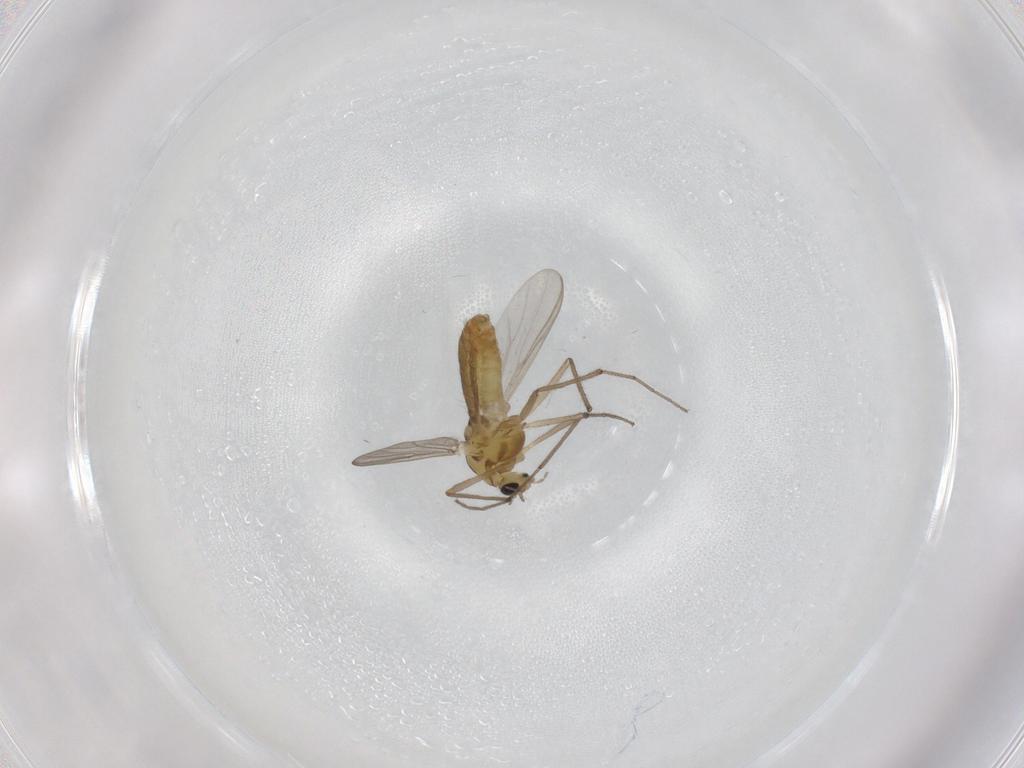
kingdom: Animalia
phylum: Arthropoda
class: Insecta
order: Diptera
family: Chironomidae
